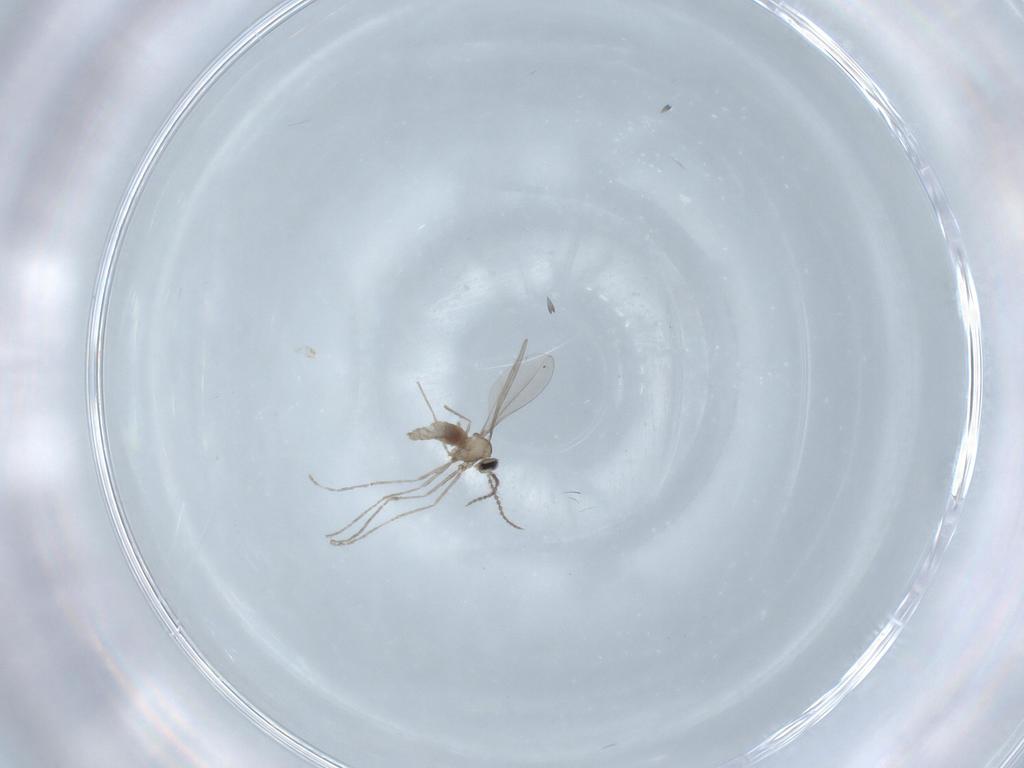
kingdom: Animalia
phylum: Arthropoda
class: Insecta
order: Diptera
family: Cecidomyiidae
